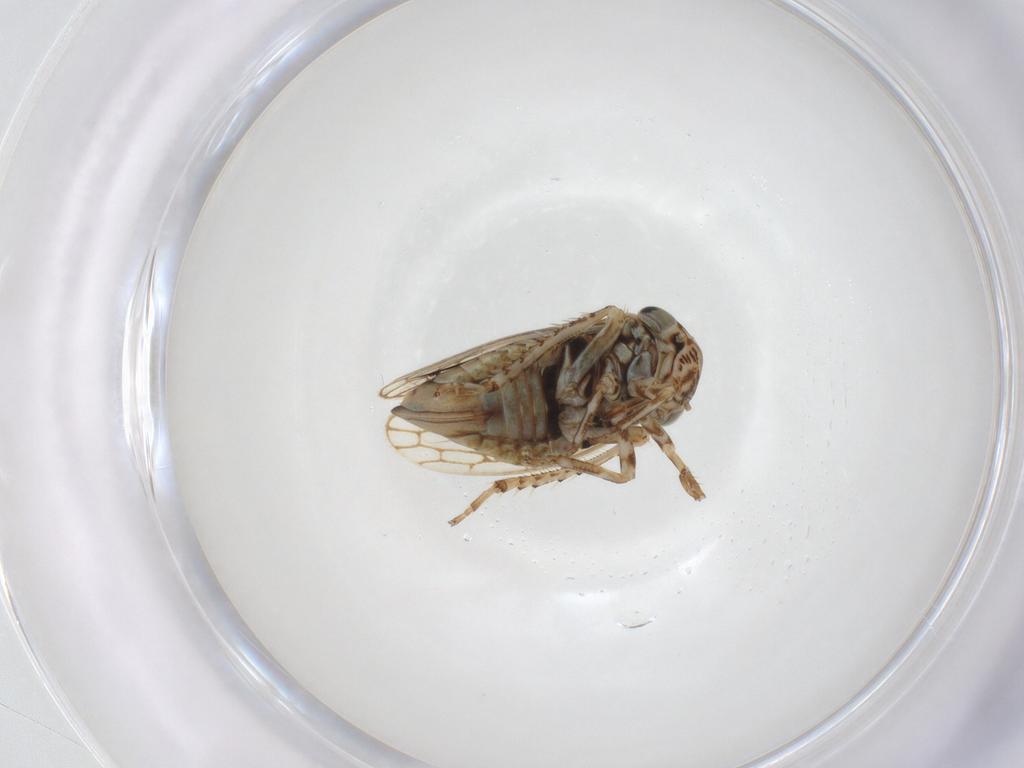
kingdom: Animalia
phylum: Arthropoda
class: Insecta
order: Hemiptera
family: Cicadellidae
